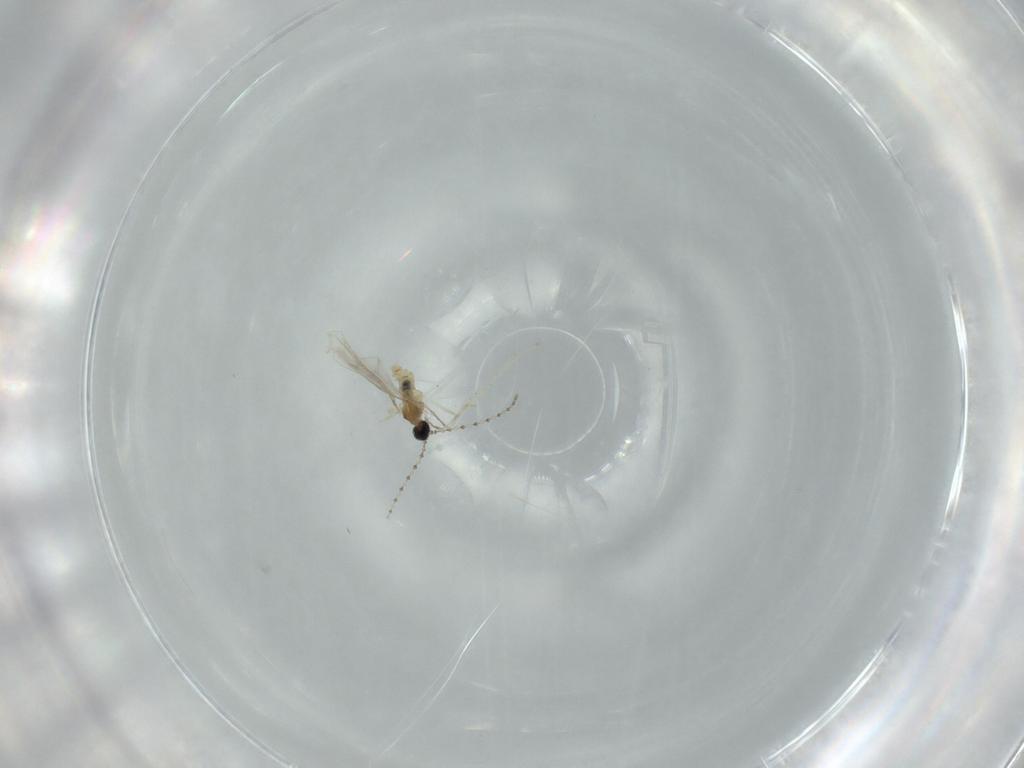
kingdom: Animalia
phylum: Arthropoda
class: Insecta
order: Diptera
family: Cecidomyiidae
